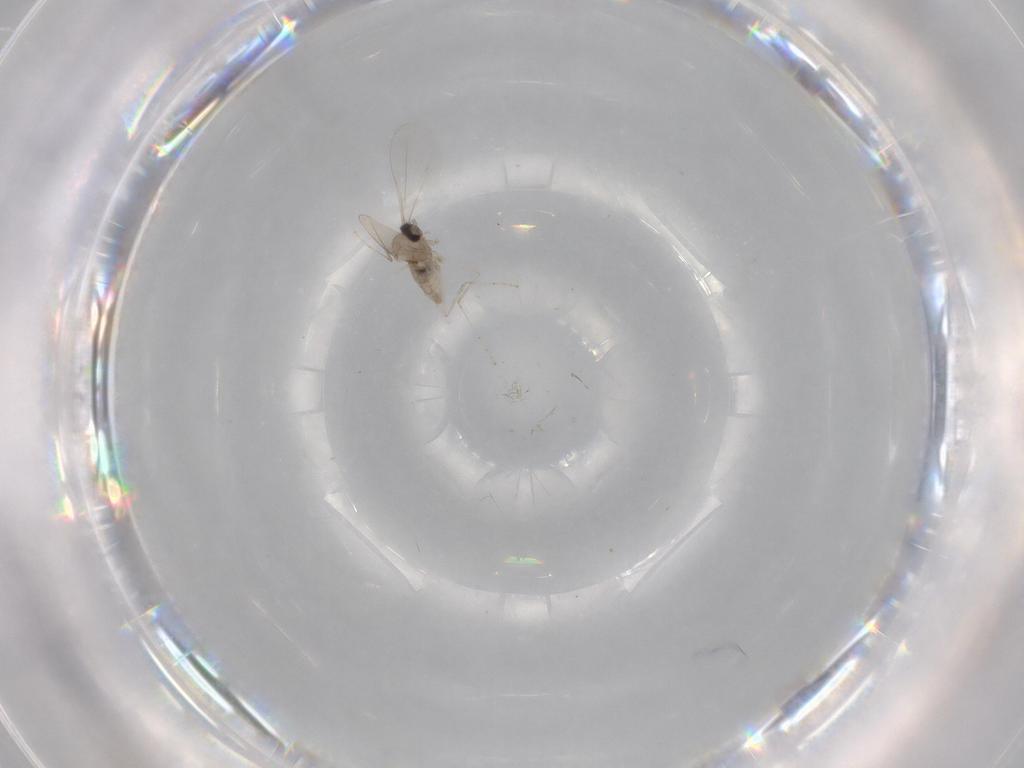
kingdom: Animalia
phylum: Arthropoda
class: Insecta
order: Diptera
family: Cecidomyiidae
